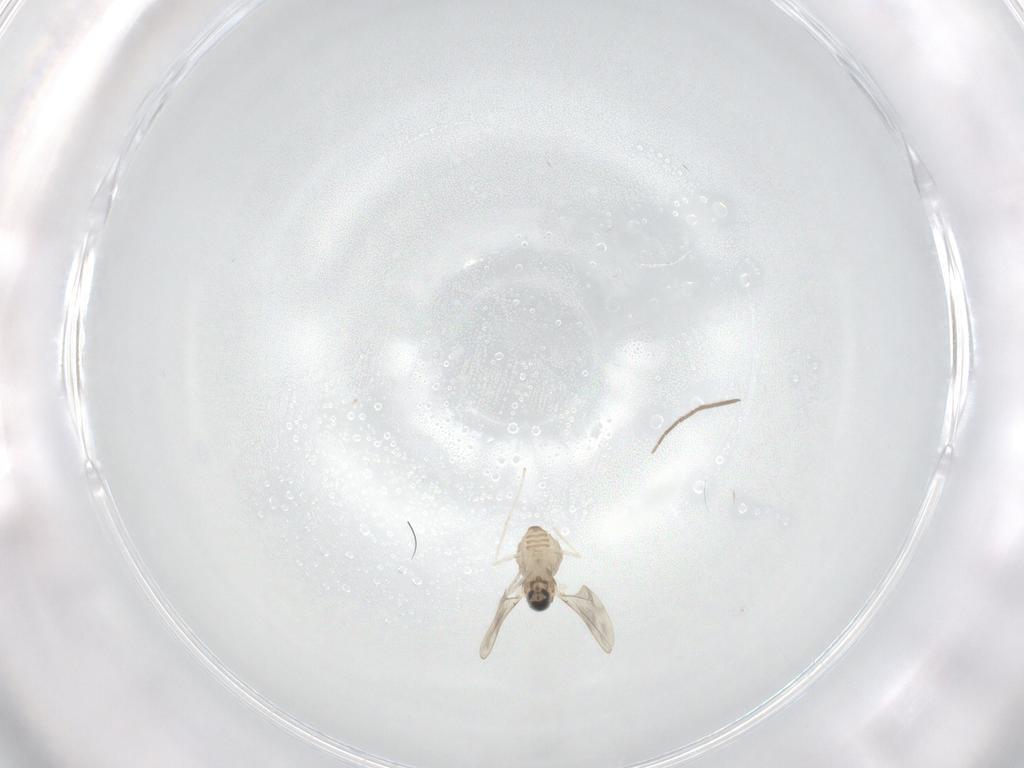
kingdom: Animalia
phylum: Arthropoda
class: Insecta
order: Diptera
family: Chironomidae
